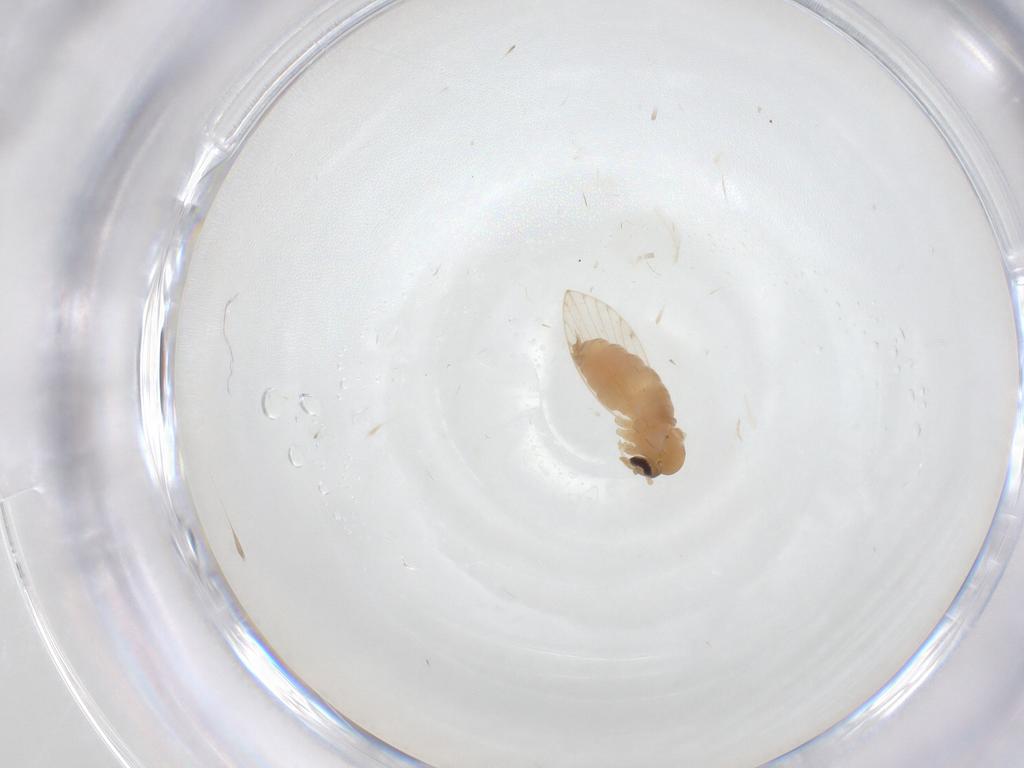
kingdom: Animalia
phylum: Arthropoda
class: Insecta
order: Diptera
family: Psychodidae
